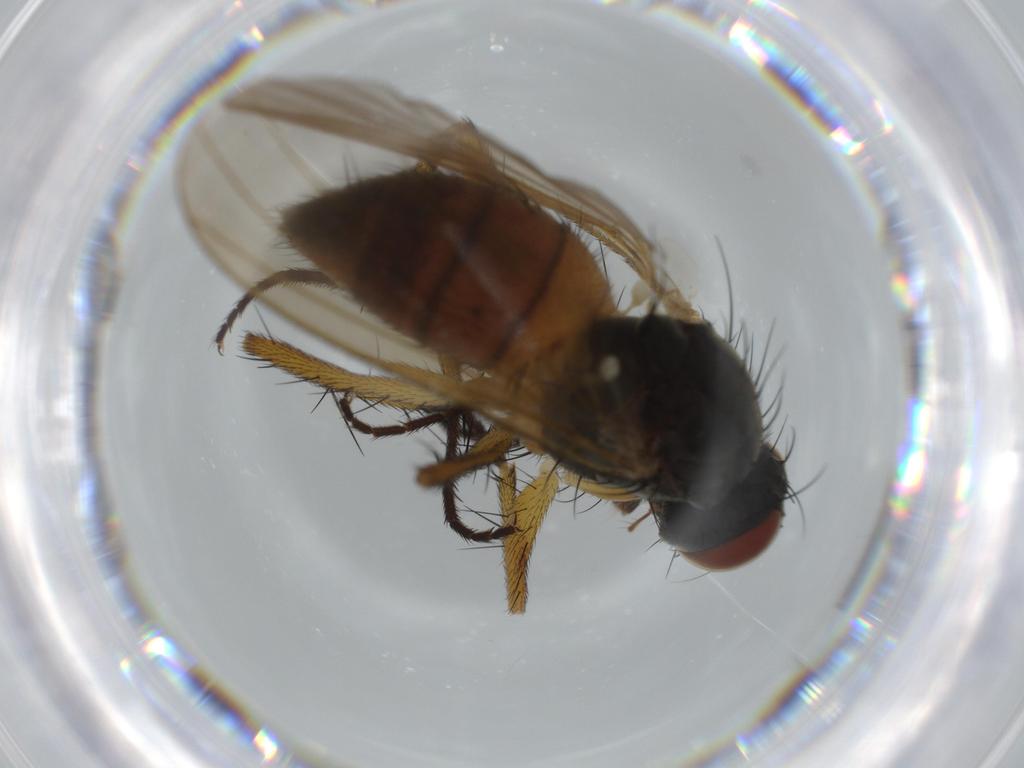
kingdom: Animalia
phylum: Arthropoda
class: Insecta
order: Diptera
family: Muscidae
